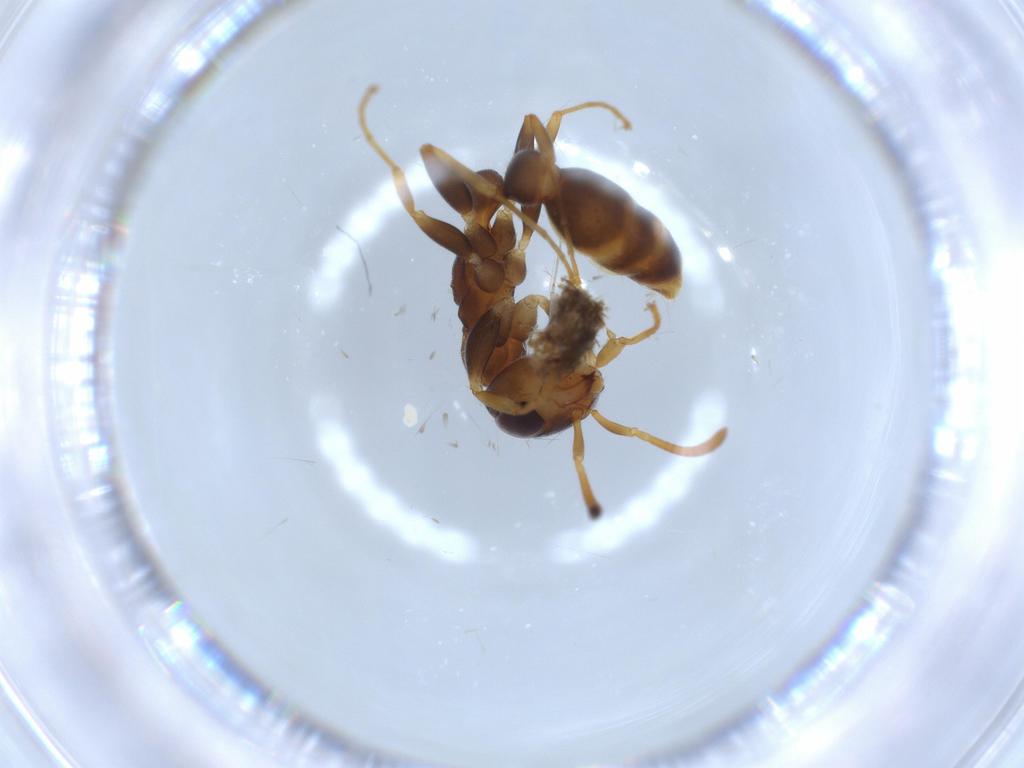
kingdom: Animalia
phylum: Arthropoda
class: Insecta
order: Hymenoptera
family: Formicidae
